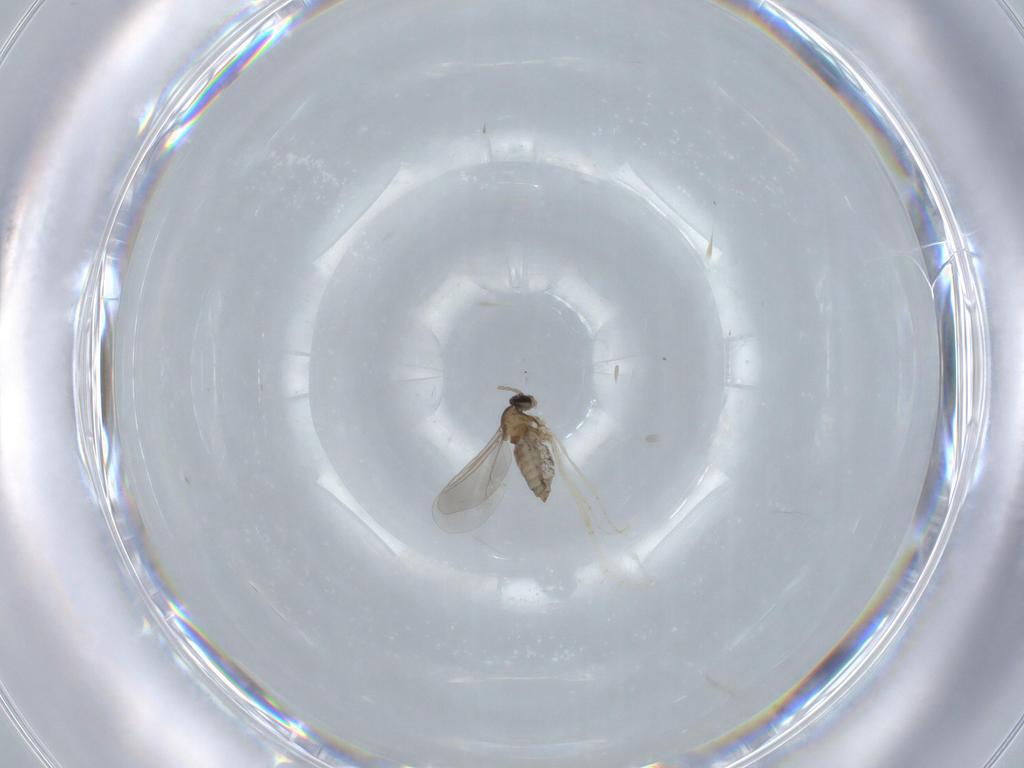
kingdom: Animalia
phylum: Arthropoda
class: Insecta
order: Diptera
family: Cecidomyiidae
